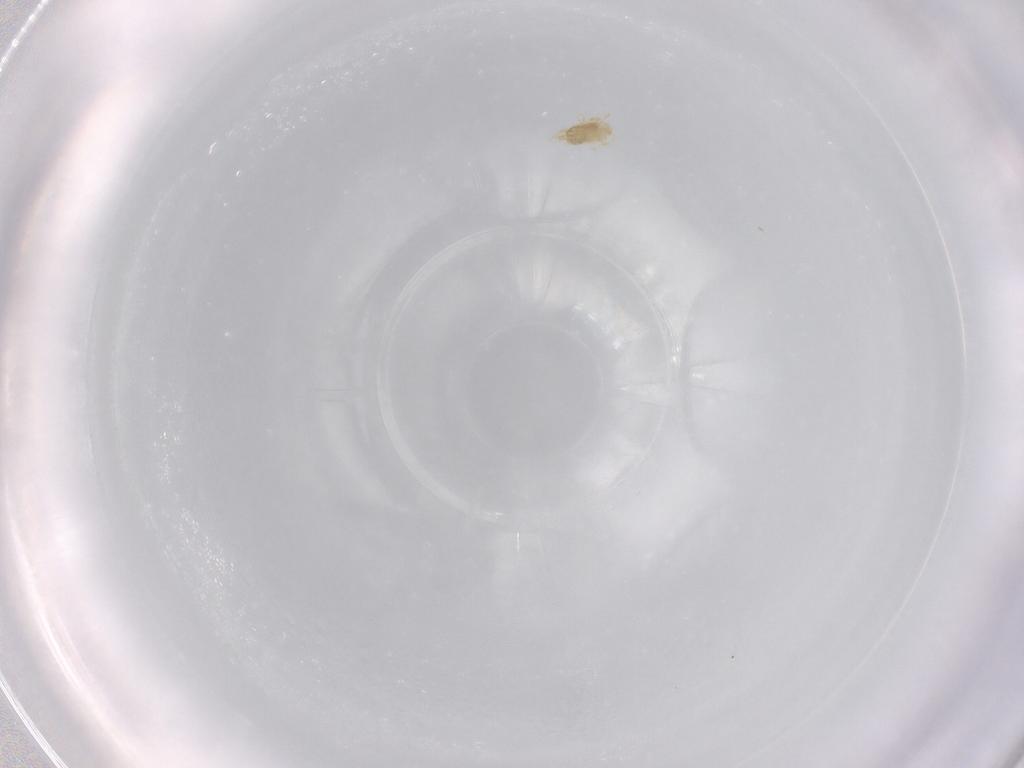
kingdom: Animalia
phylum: Arthropoda
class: Arachnida
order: Trombidiformes
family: Eupodidae
